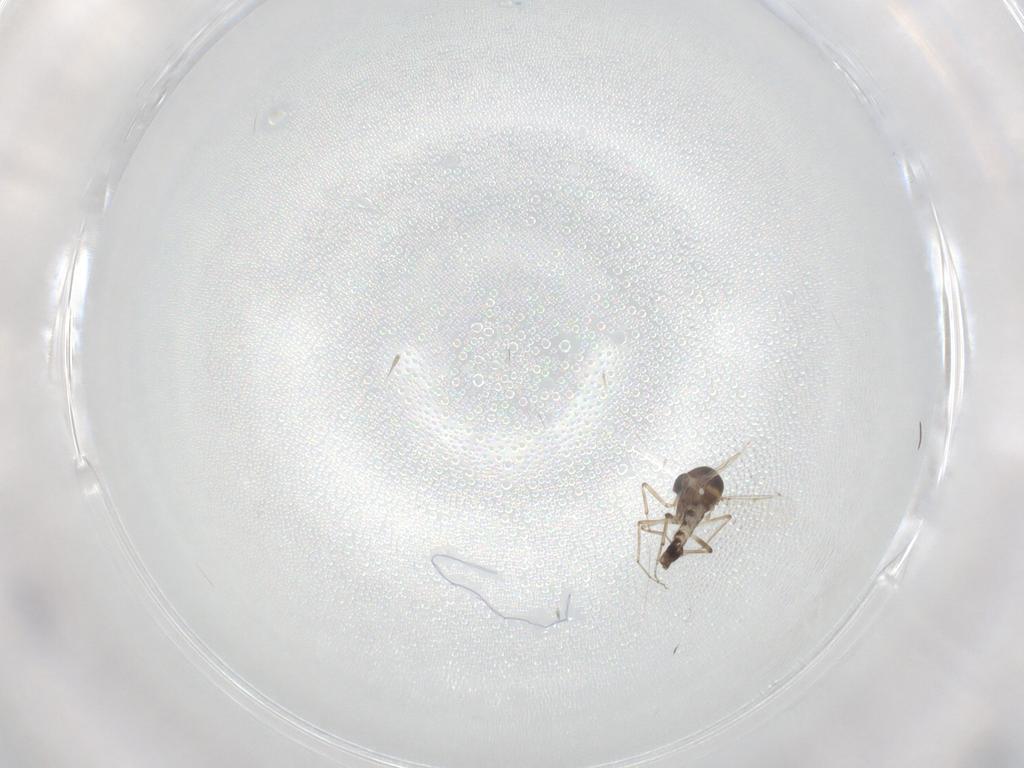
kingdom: Animalia
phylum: Arthropoda
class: Insecta
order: Diptera
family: Ceratopogonidae
